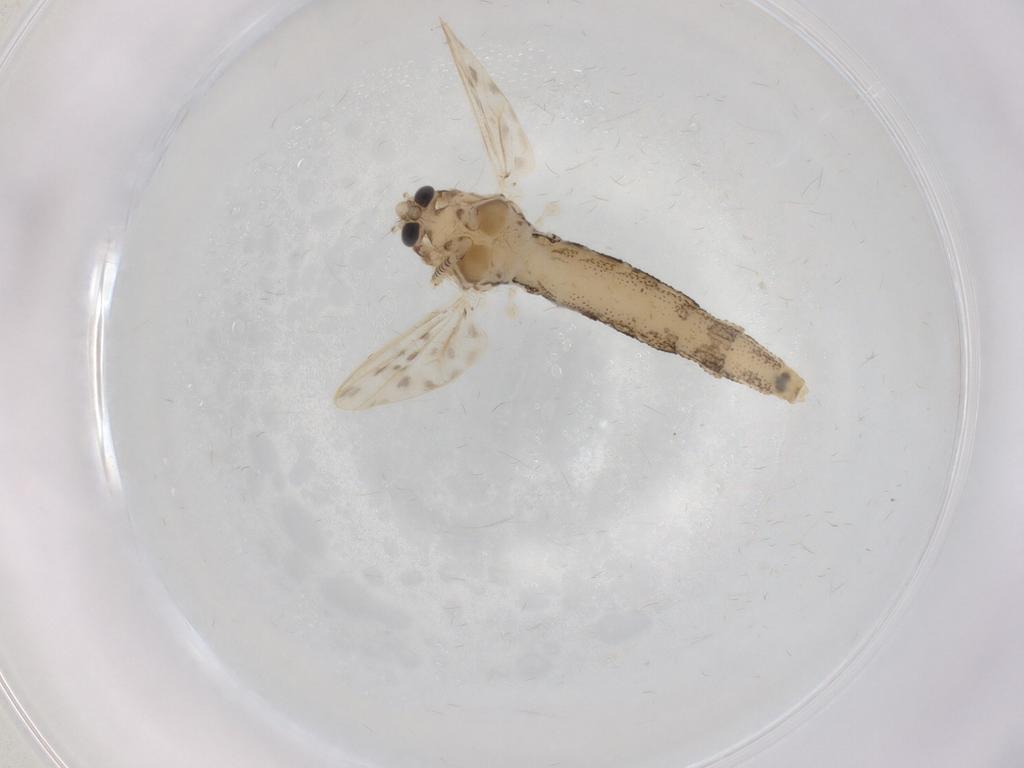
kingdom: Animalia
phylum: Arthropoda
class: Insecta
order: Diptera
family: Chaoboridae
